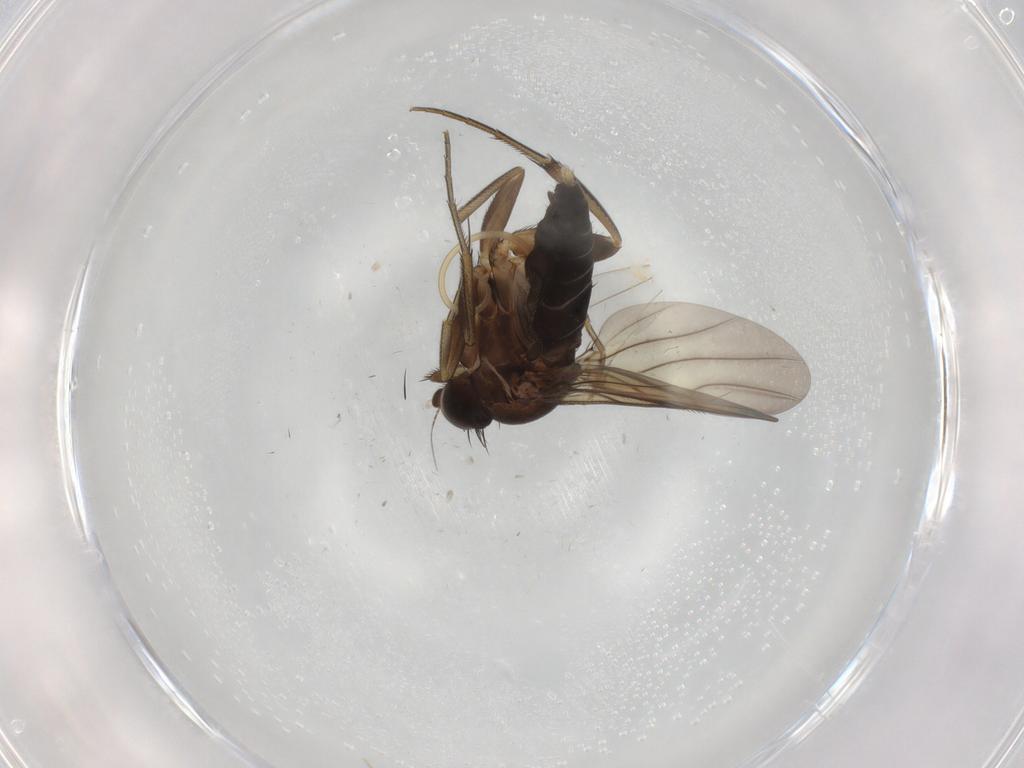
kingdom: Animalia
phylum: Arthropoda
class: Insecta
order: Diptera
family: Phoridae
